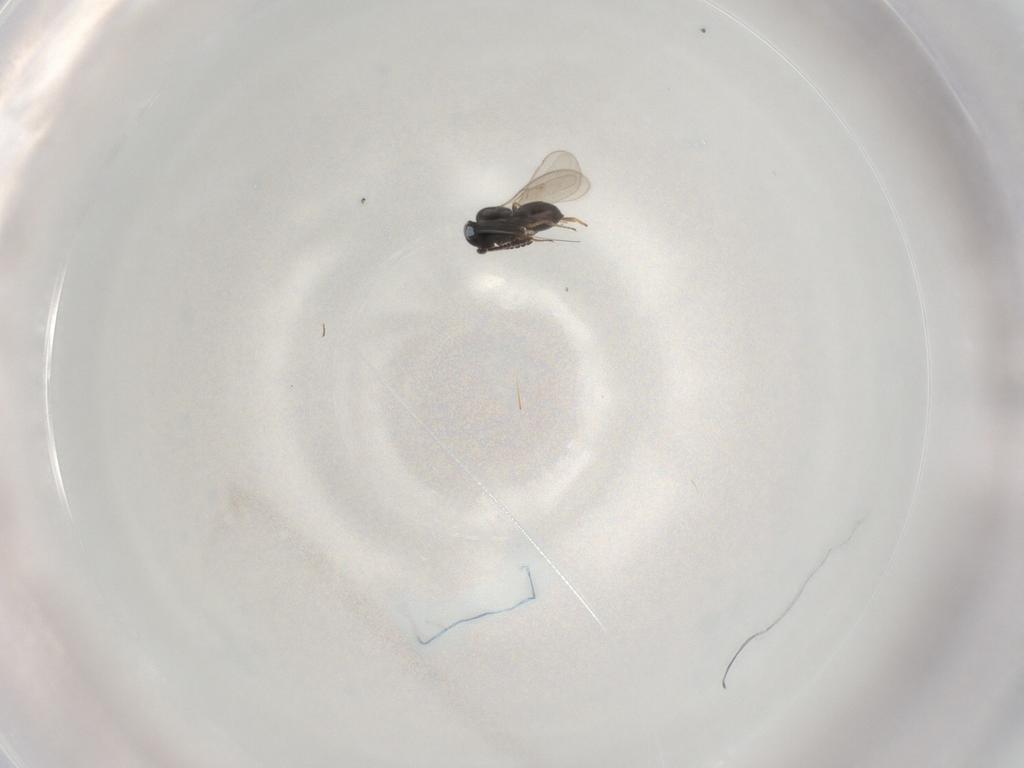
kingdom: Animalia
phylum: Arthropoda
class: Insecta
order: Hymenoptera
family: Scelionidae
